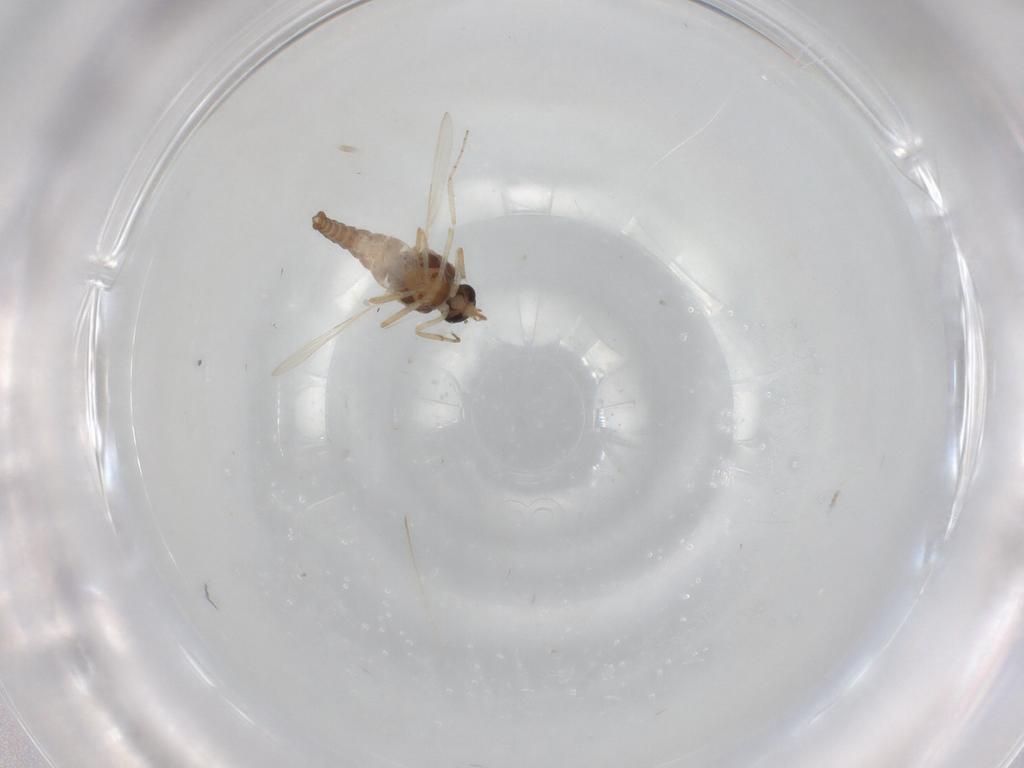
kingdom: Animalia
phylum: Arthropoda
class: Insecta
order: Diptera
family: Ceratopogonidae
